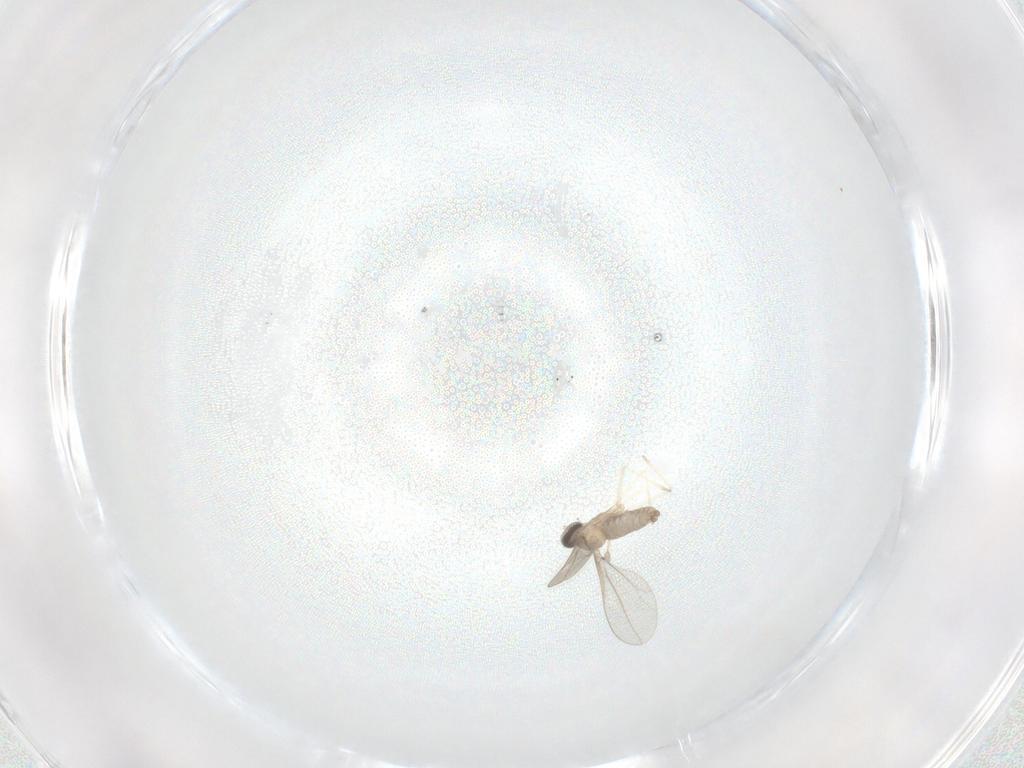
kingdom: Animalia
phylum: Arthropoda
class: Insecta
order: Diptera
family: Cecidomyiidae
